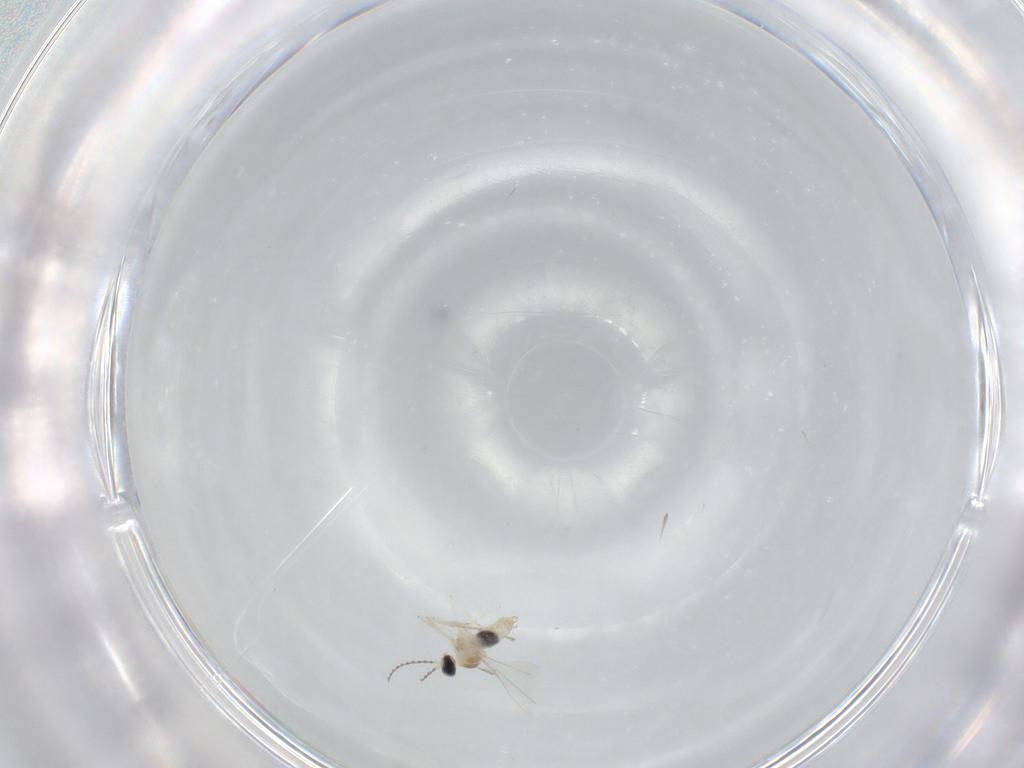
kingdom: Animalia
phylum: Arthropoda
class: Insecta
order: Diptera
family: Cecidomyiidae
